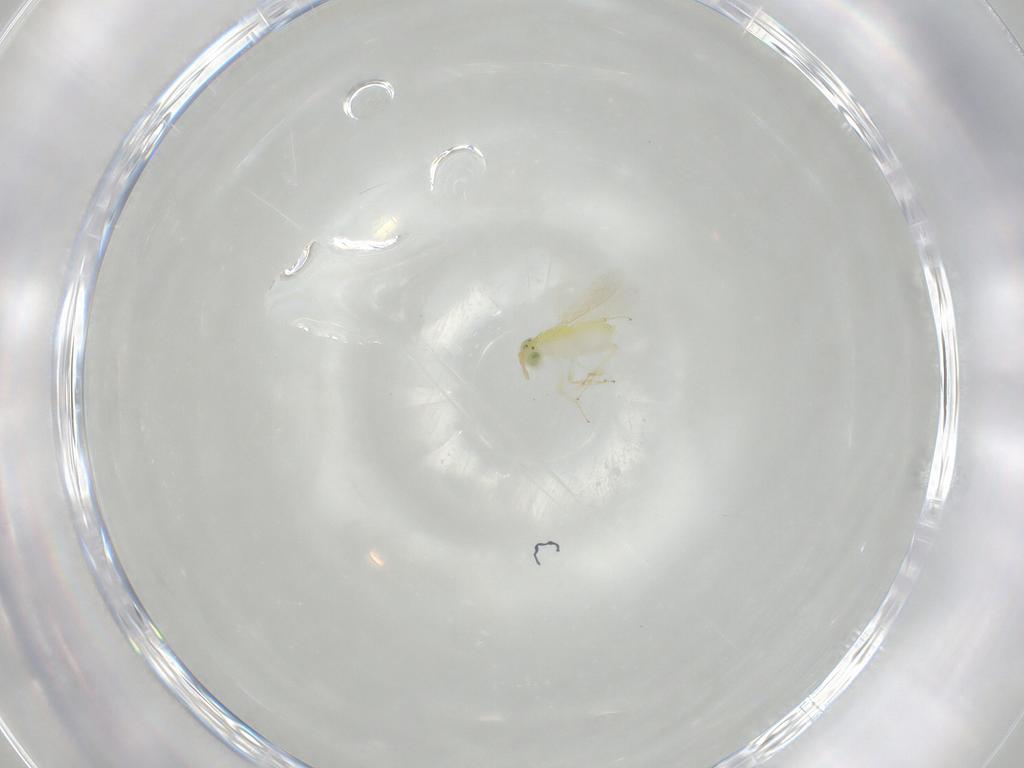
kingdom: Animalia
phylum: Arthropoda
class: Insecta
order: Hymenoptera
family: Aphelinidae
